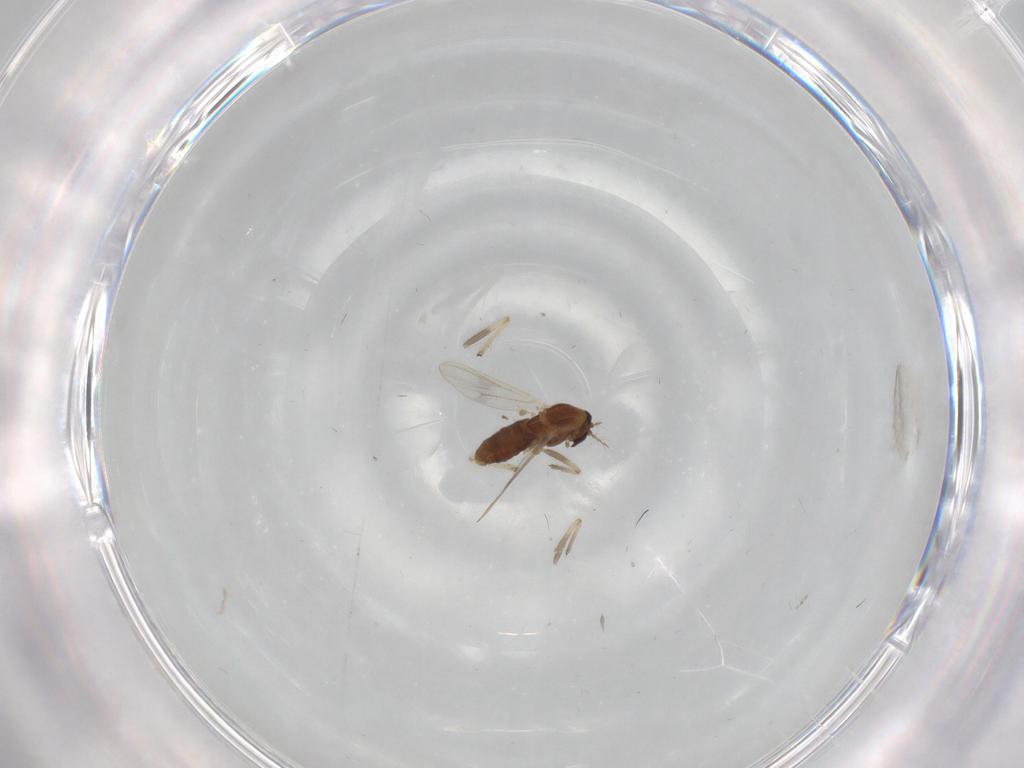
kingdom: Animalia
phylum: Arthropoda
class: Insecta
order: Diptera
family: Chironomidae
